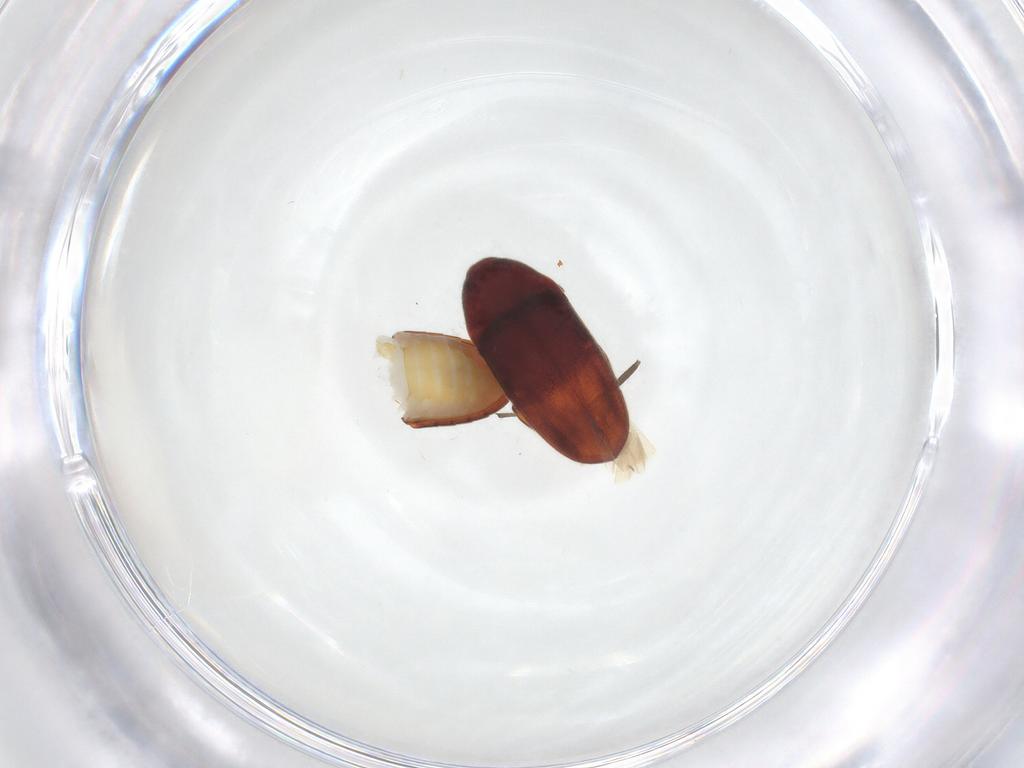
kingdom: Animalia
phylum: Arthropoda
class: Insecta
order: Coleoptera
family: Throscidae
